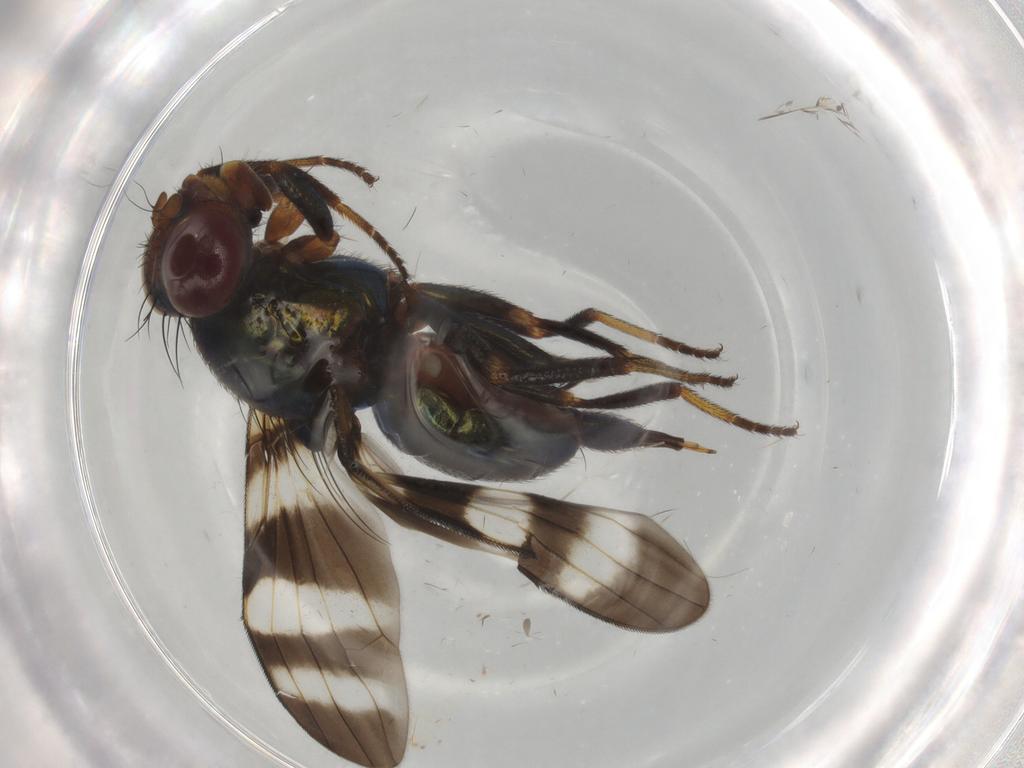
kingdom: Animalia
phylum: Arthropoda
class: Insecta
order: Diptera
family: Ulidiidae
